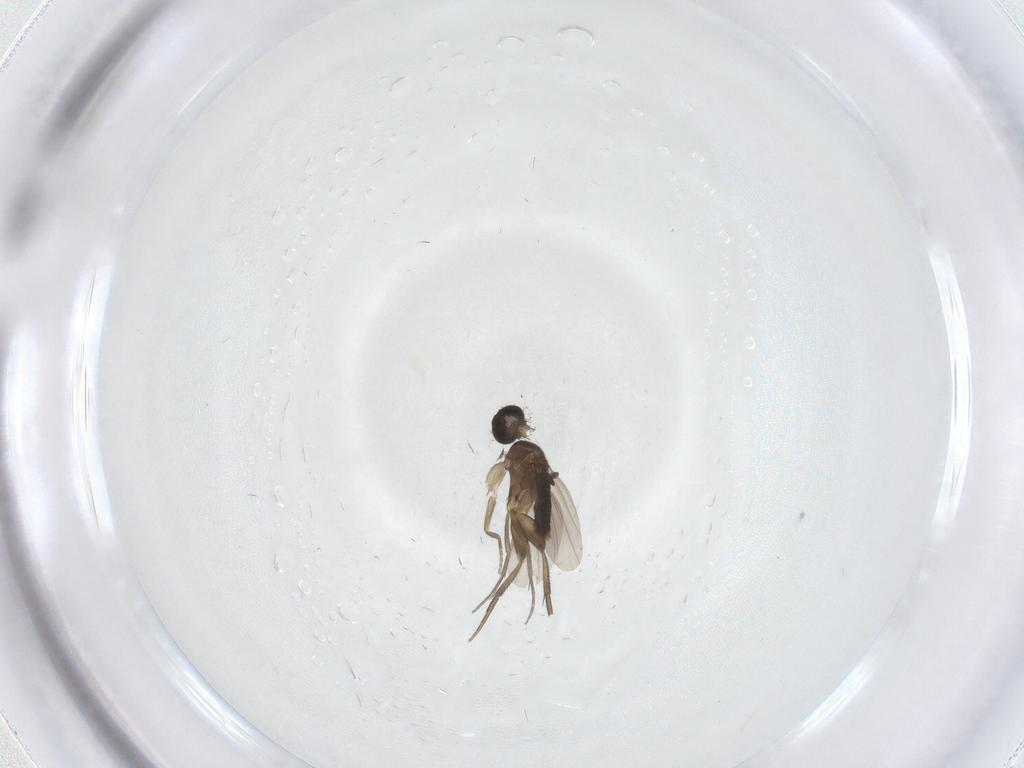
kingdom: Animalia
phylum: Arthropoda
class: Insecta
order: Diptera
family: Phoridae
